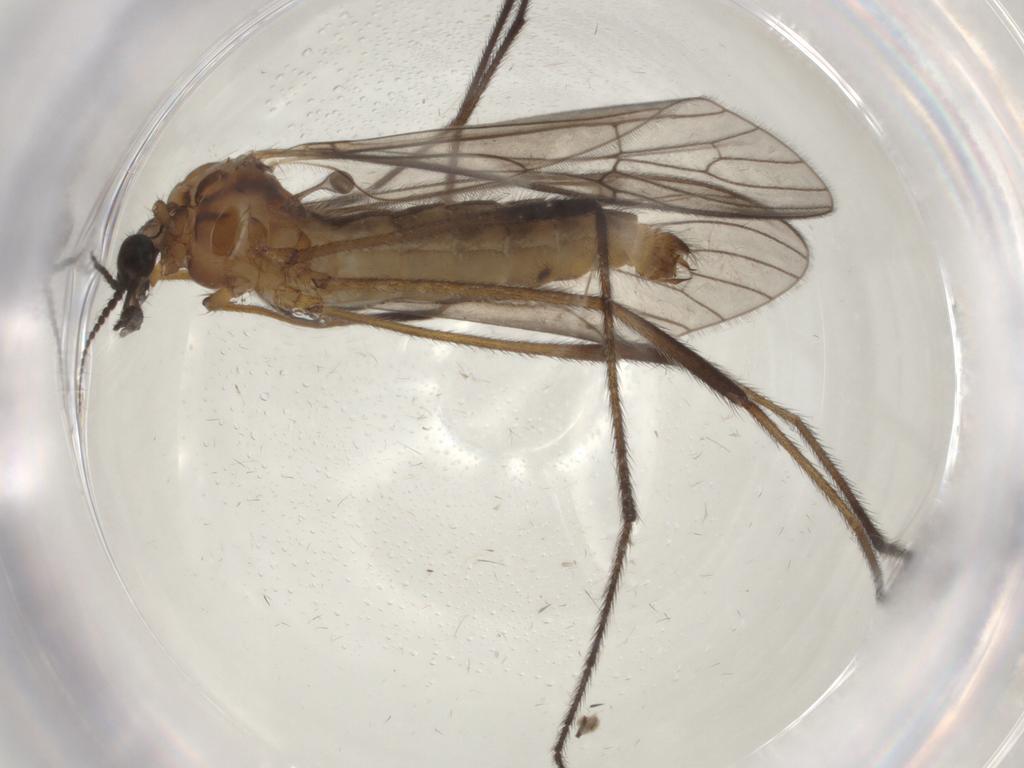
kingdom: Animalia
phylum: Arthropoda
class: Insecta
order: Diptera
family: Limoniidae
